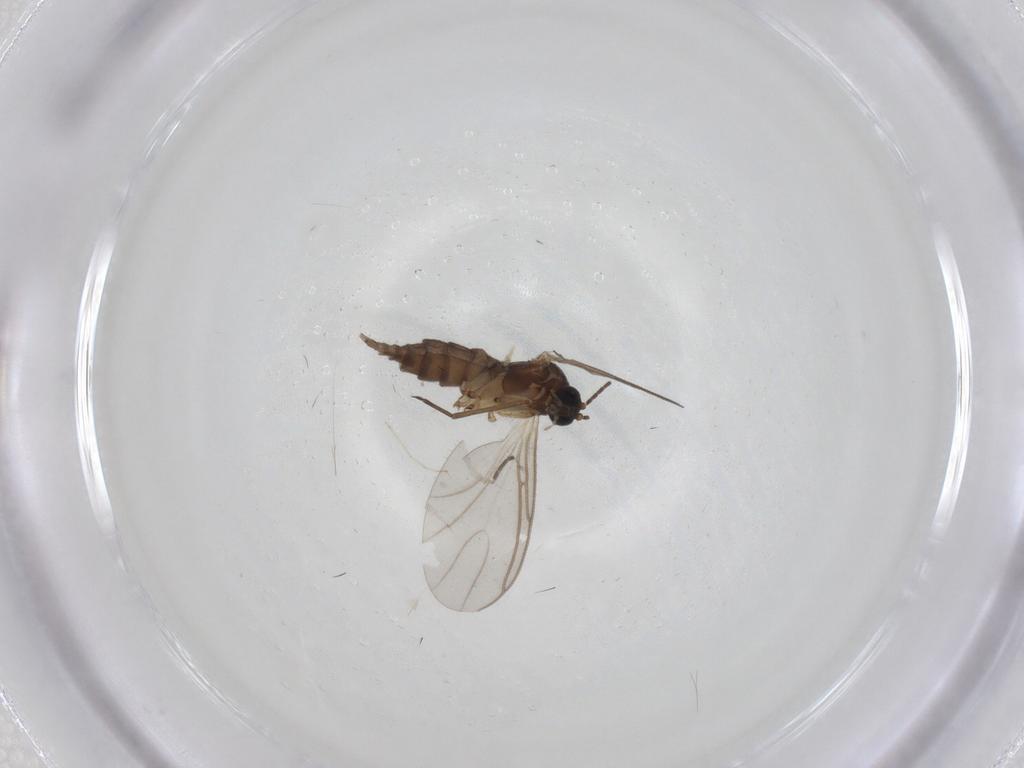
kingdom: Animalia
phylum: Arthropoda
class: Insecta
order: Diptera
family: Sciaridae
